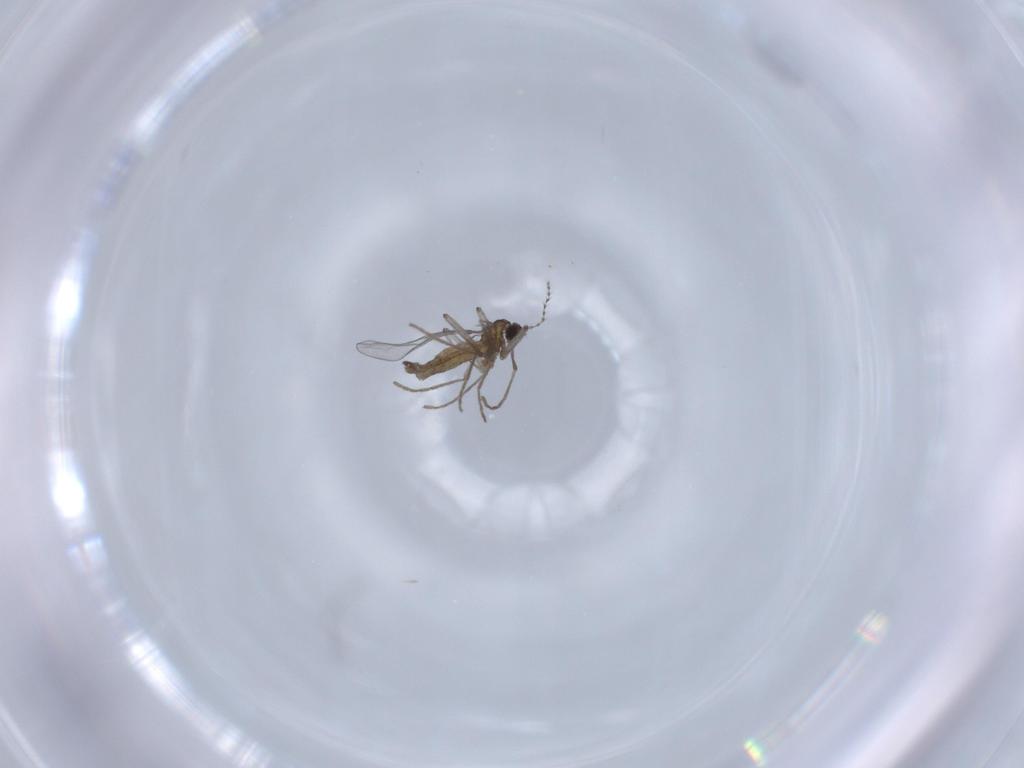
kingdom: Animalia
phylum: Arthropoda
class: Insecta
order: Diptera
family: Cecidomyiidae
